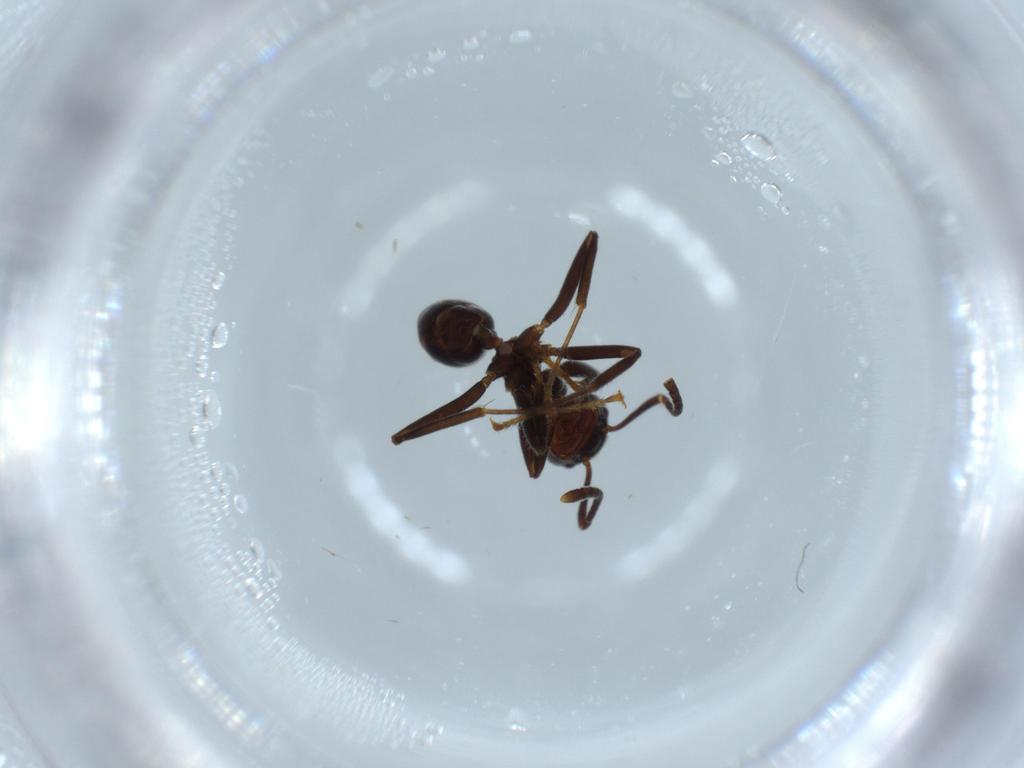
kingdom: Animalia
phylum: Arthropoda
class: Insecta
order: Hymenoptera
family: Formicidae
